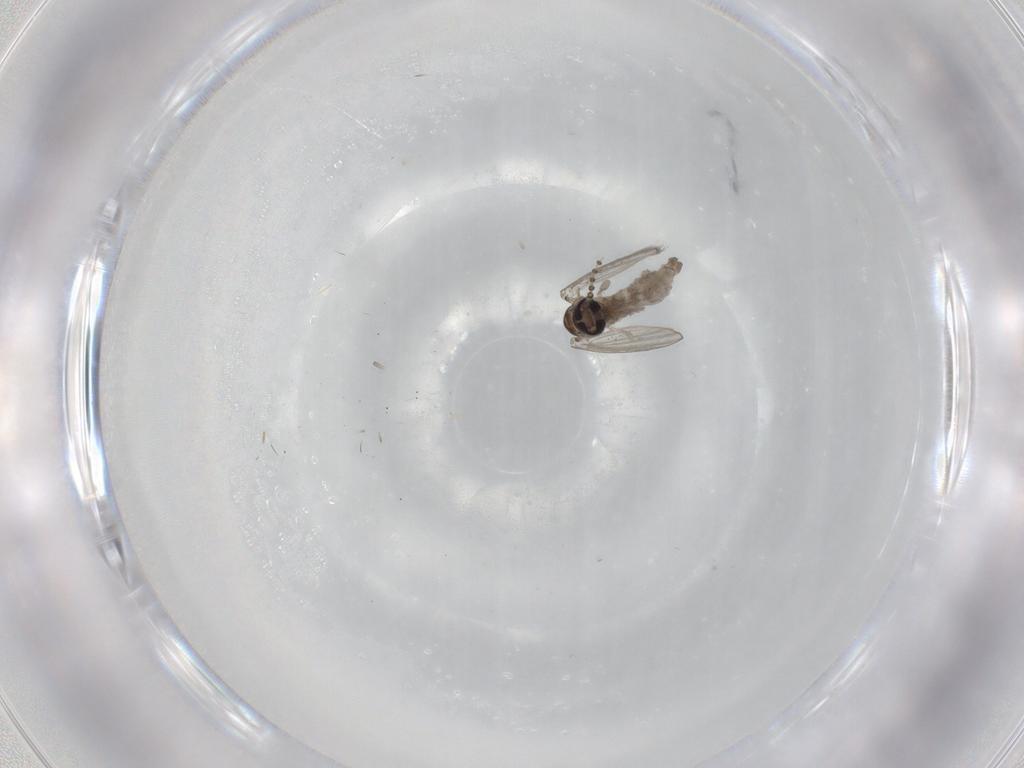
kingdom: Animalia
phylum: Arthropoda
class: Insecta
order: Diptera
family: Psychodidae
